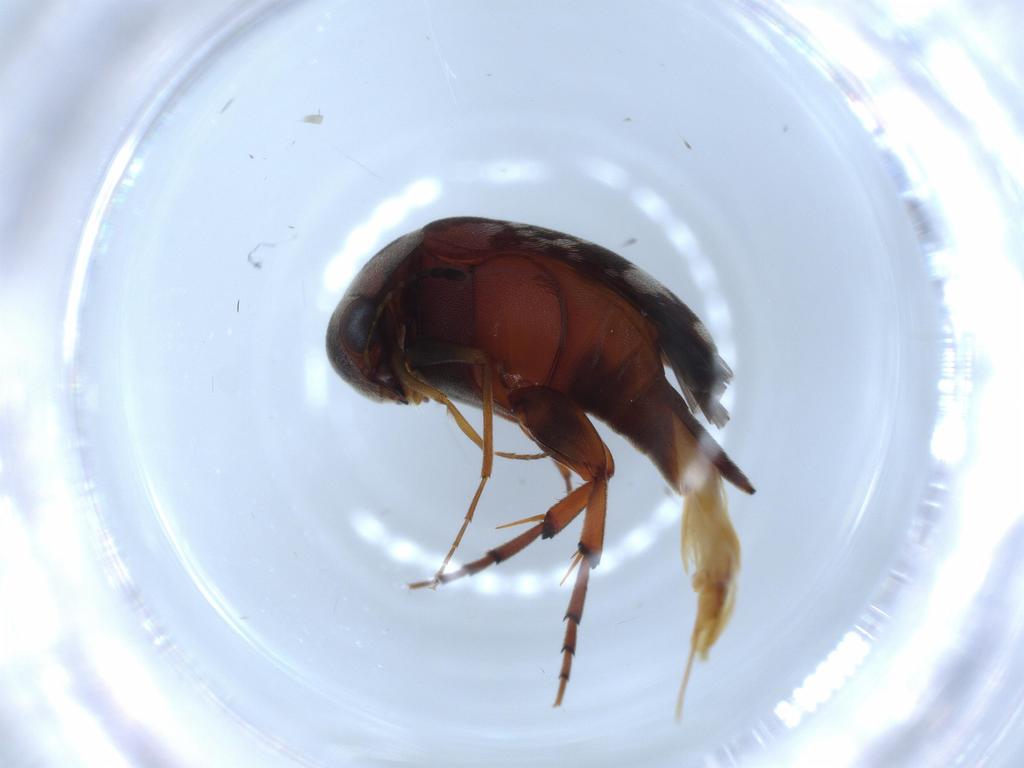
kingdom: Animalia
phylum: Arthropoda
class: Insecta
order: Coleoptera
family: Mordellidae
